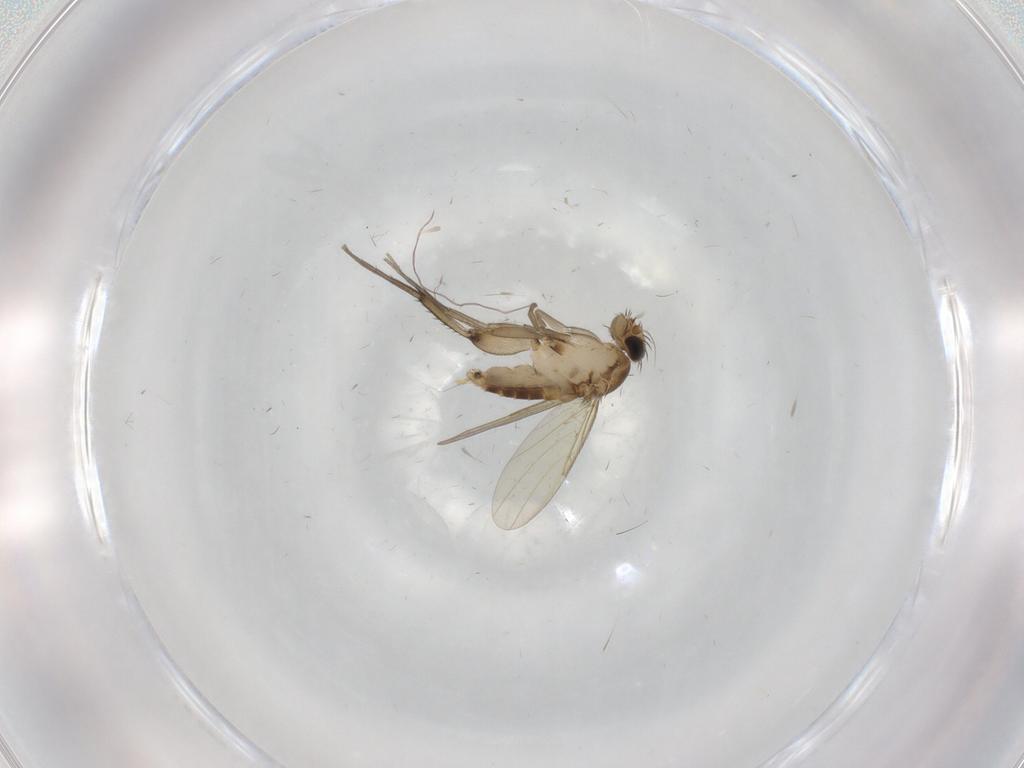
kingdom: Animalia
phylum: Arthropoda
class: Insecta
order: Diptera
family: Phoridae
